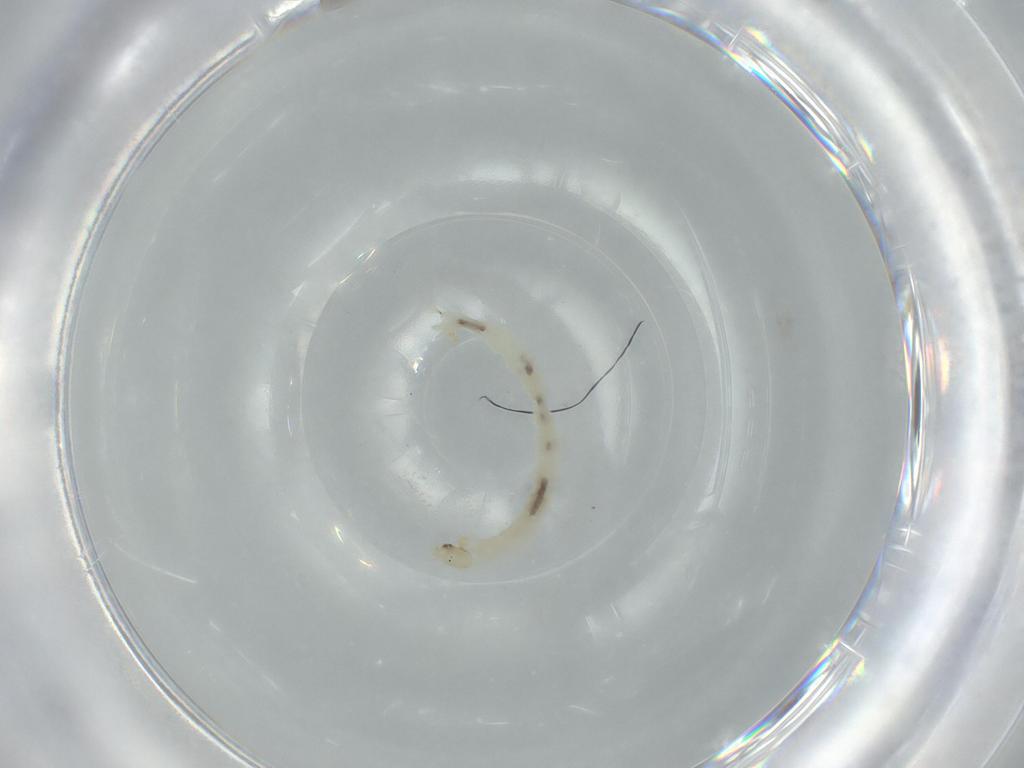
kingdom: Animalia
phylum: Arthropoda
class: Insecta
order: Diptera
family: Chironomidae
